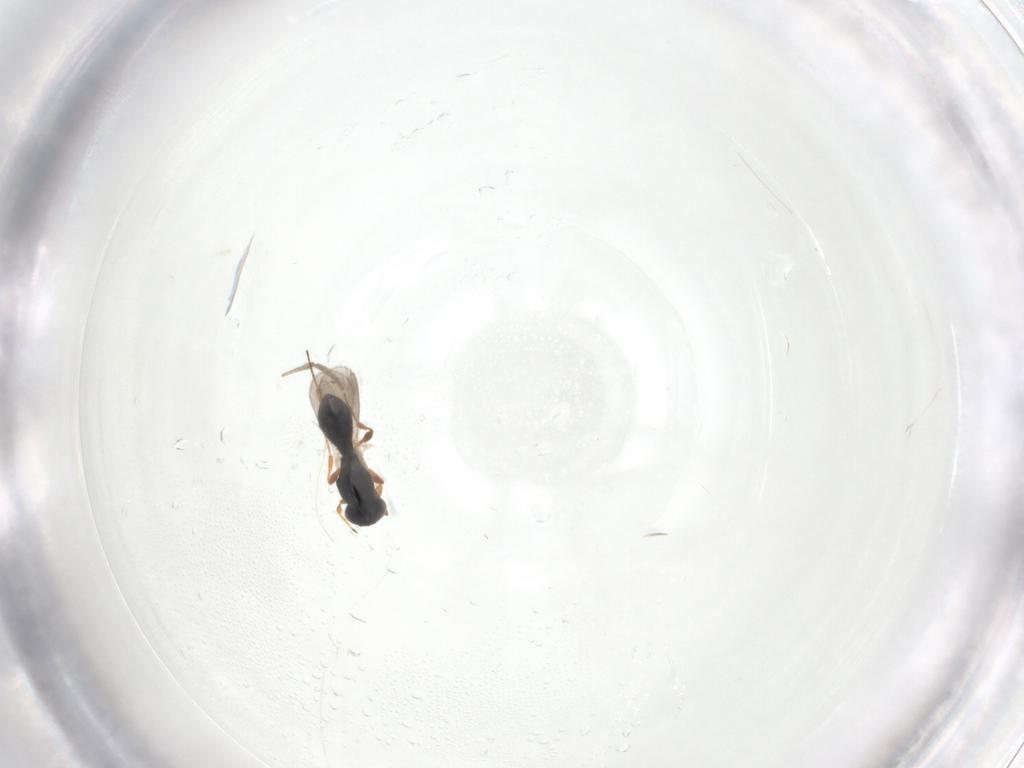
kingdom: Animalia
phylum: Arthropoda
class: Insecta
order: Hymenoptera
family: Platygastridae
